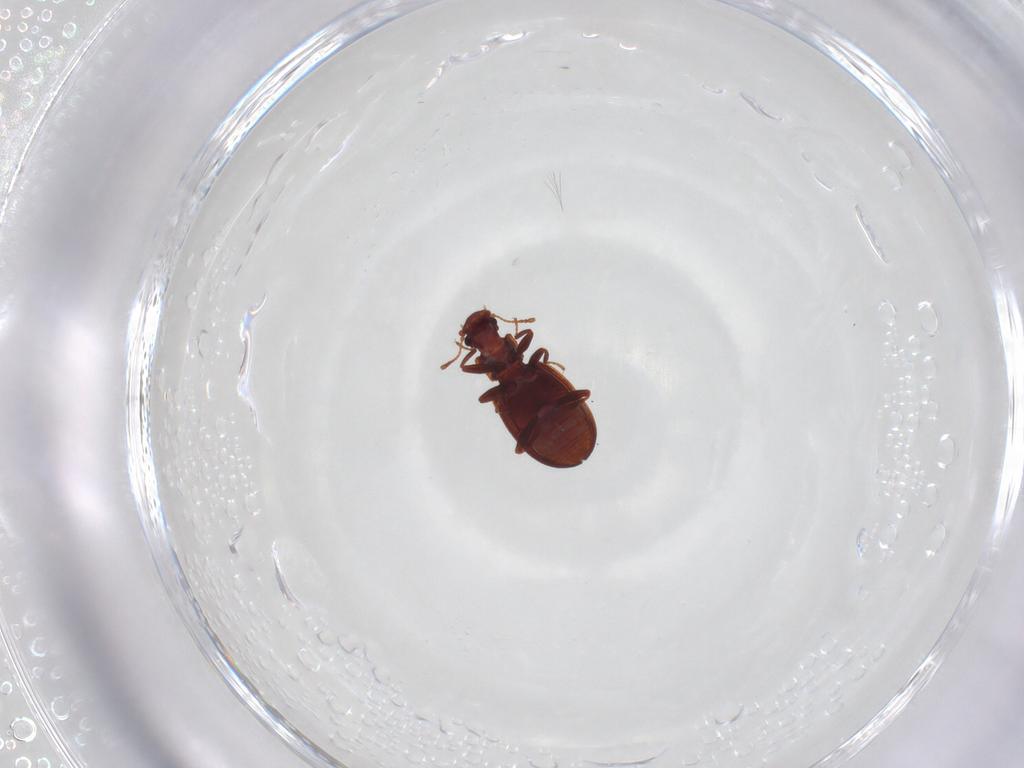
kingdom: Animalia
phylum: Arthropoda
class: Insecta
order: Coleoptera
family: Latridiidae
